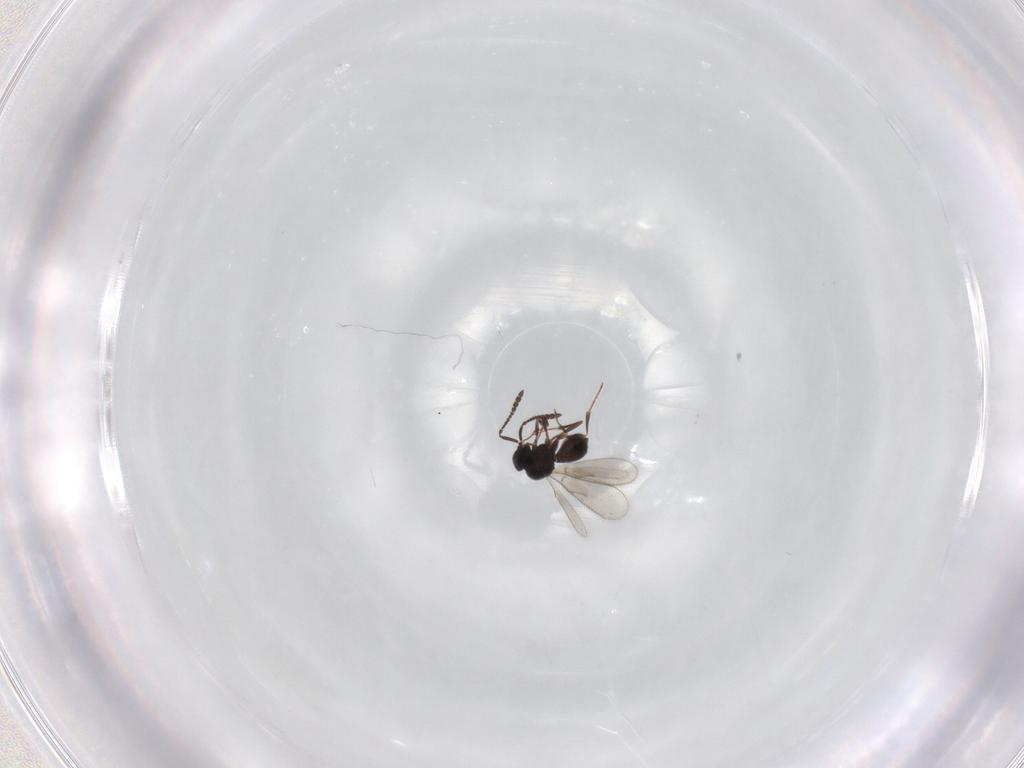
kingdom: Animalia
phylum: Arthropoda
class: Insecta
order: Hymenoptera
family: Scelionidae
